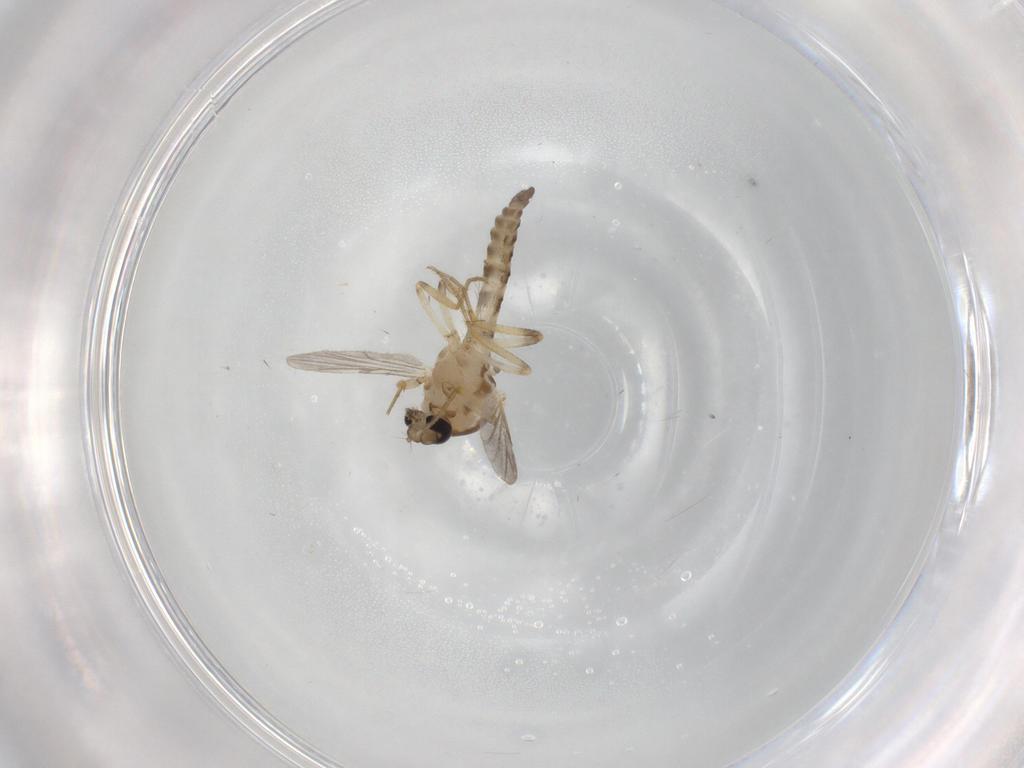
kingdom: Animalia
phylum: Arthropoda
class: Insecta
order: Diptera
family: Ceratopogonidae
